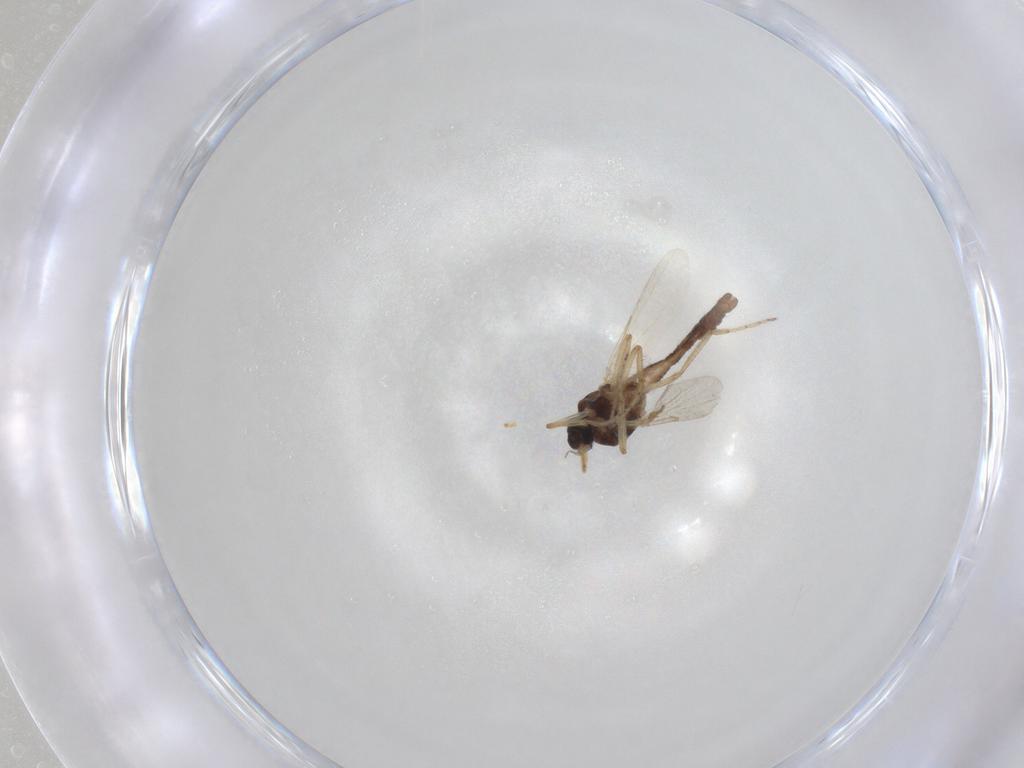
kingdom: Animalia
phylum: Arthropoda
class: Insecta
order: Diptera
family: Ceratopogonidae
